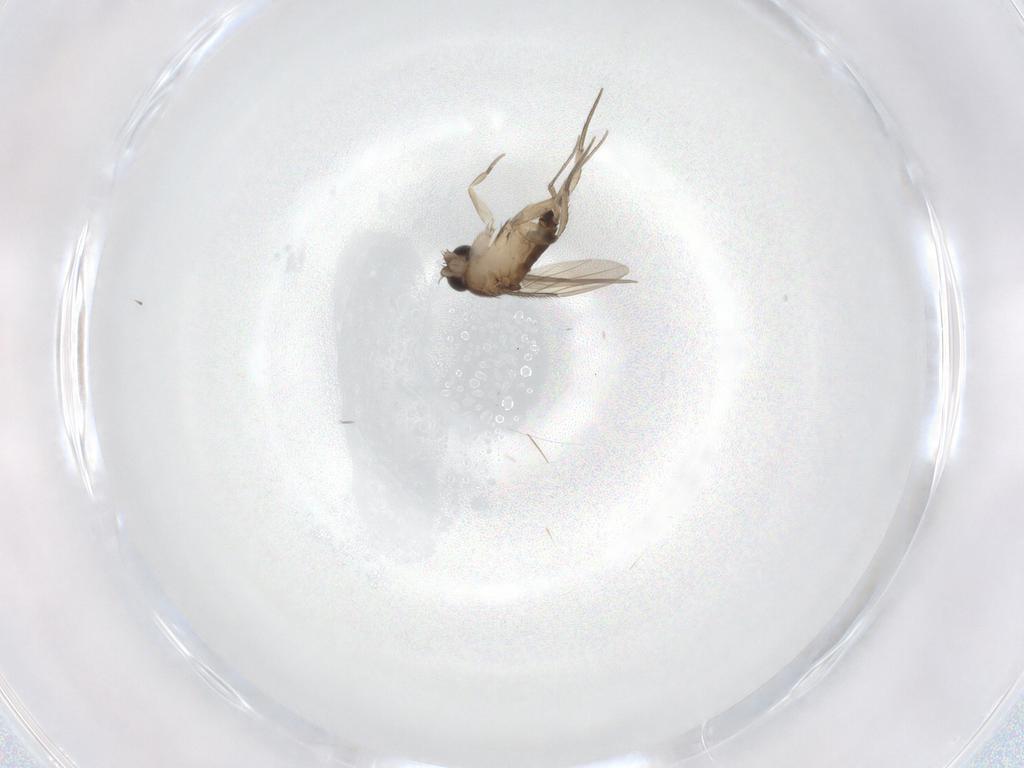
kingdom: Animalia
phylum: Arthropoda
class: Insecta
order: Diptera
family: Phoridae
